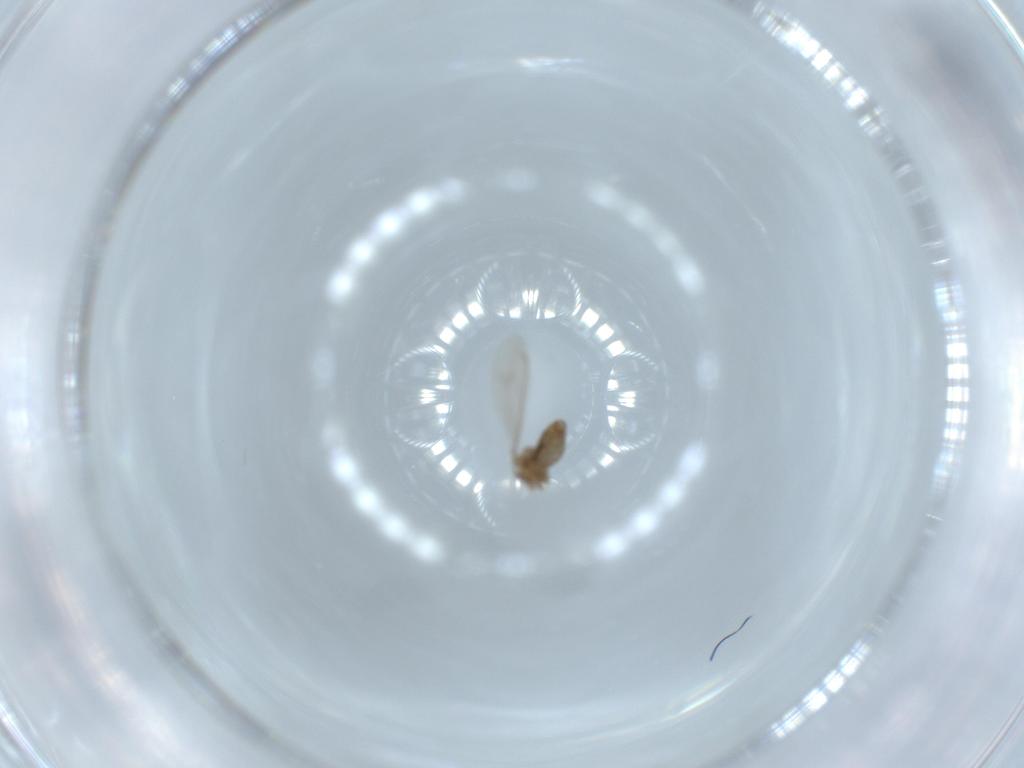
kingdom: Animalia
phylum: Arthropoda
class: Insecta
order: Diptera
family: Cecidomyiidae
